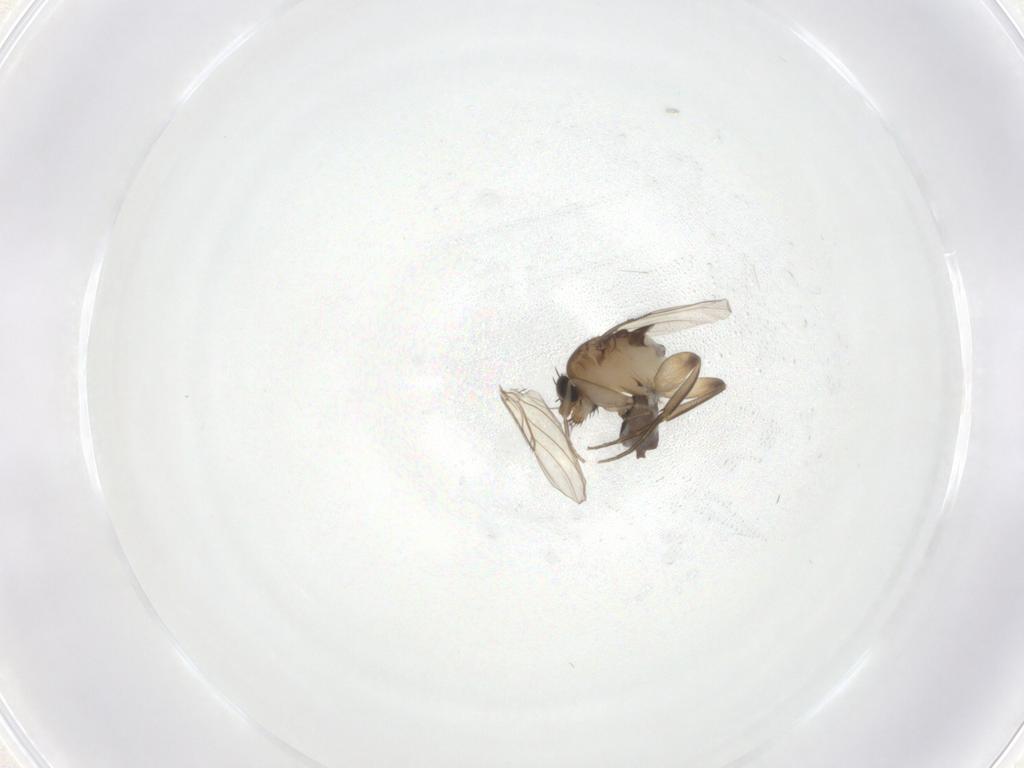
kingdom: Animalia
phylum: Arthropoda
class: Insecta
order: Diptera
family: Phoridae
